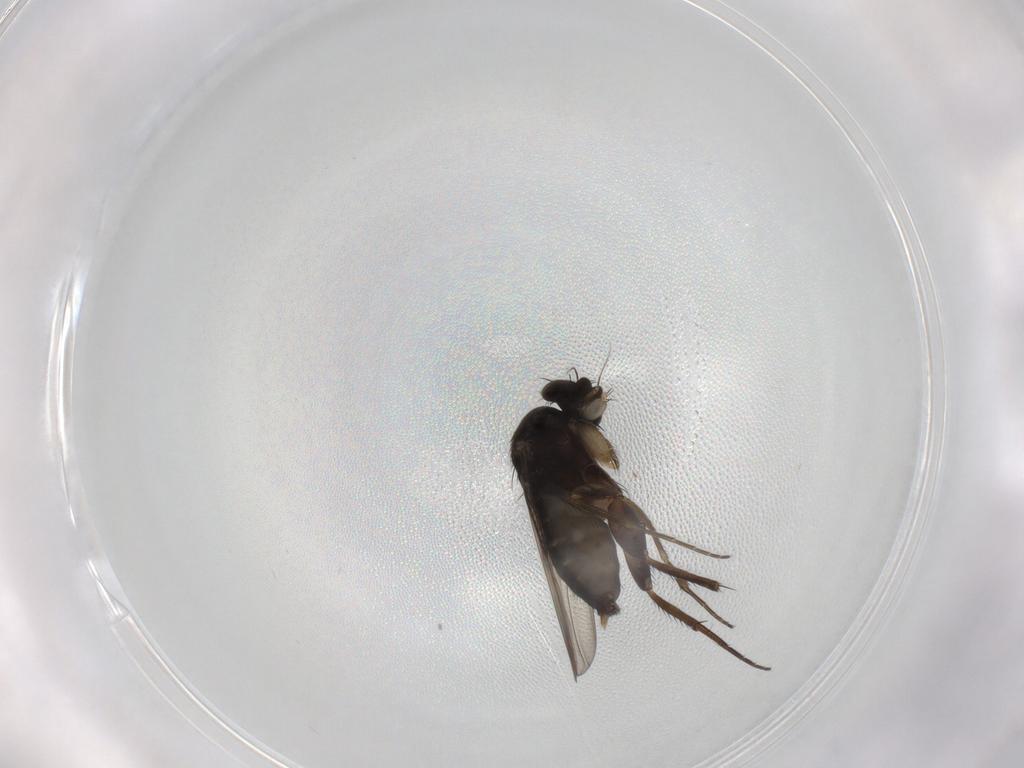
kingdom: Animalia
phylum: Arthropoda
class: Insecta
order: Diptera
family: Phoridae
